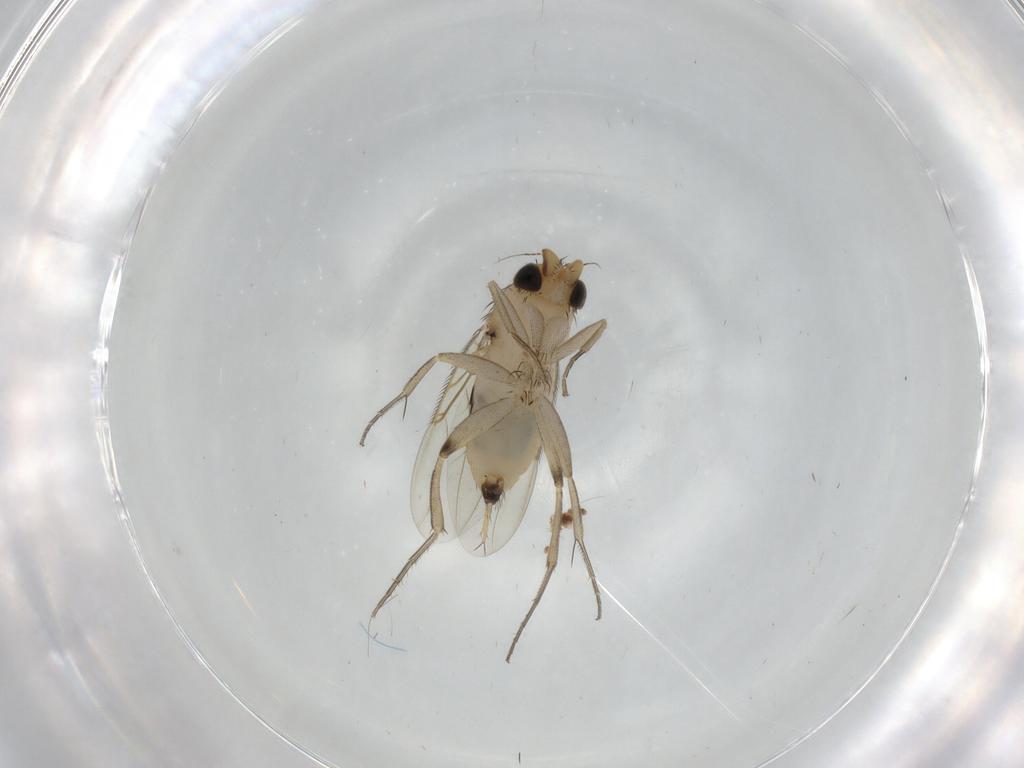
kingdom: Animalia
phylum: Arthropoda
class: Insecta
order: Diptera
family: Phoridae
